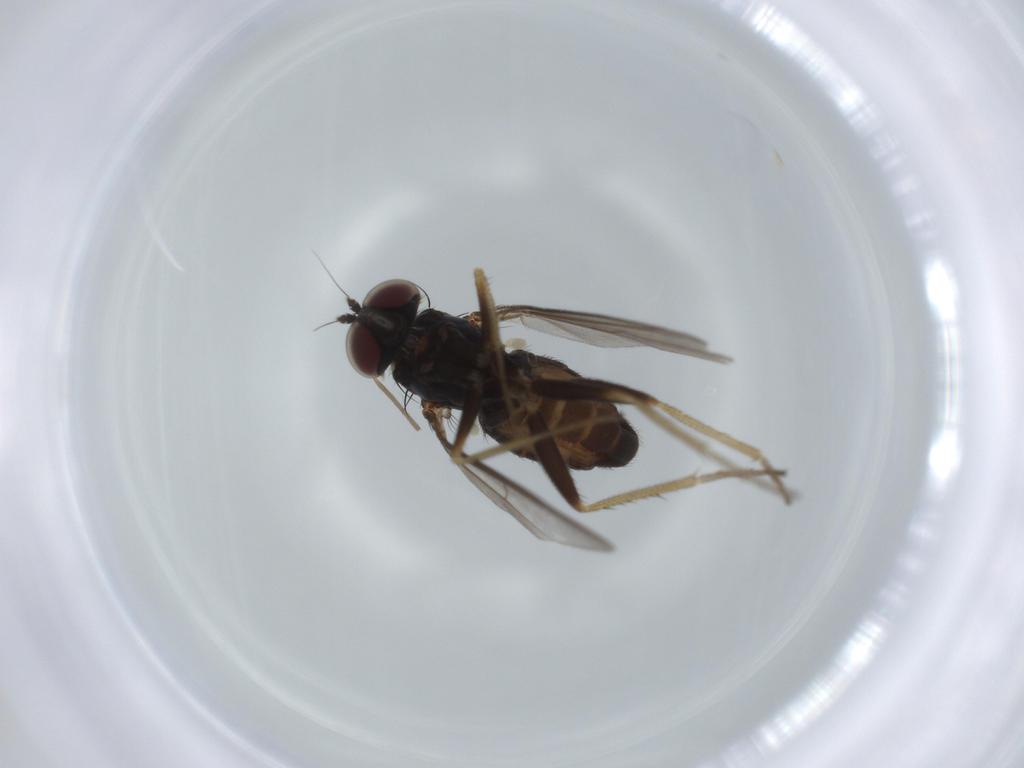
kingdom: Animalia
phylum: Arthropoda
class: Insecta
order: Diptera
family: Dolichopodidae
